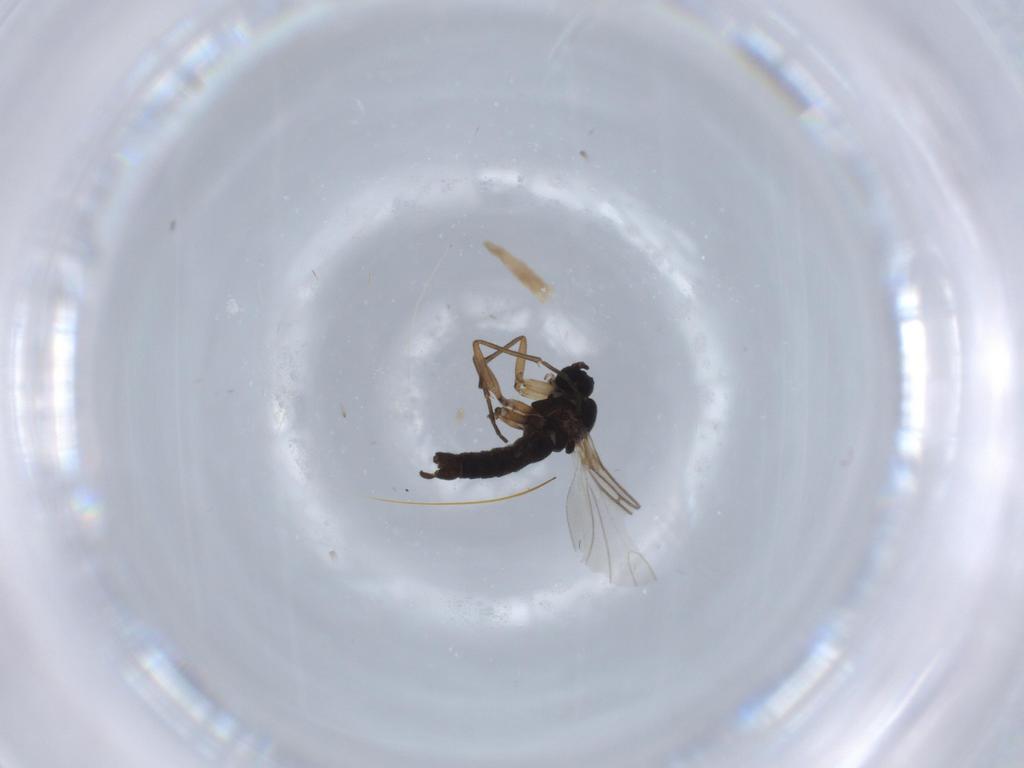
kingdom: Animalia
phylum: Arthropoda
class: Insecta
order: Diptera
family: Sciaridae
